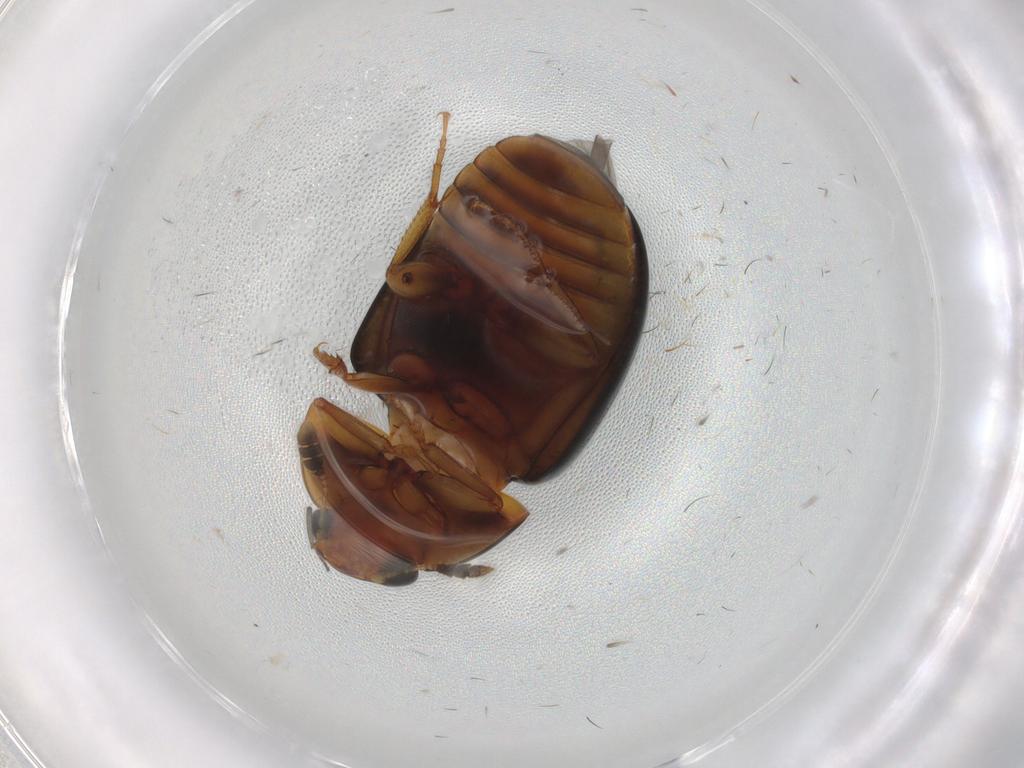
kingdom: Animalia
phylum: Arthropoda
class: Insecta
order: Coleoptera
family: Nitidulidae
